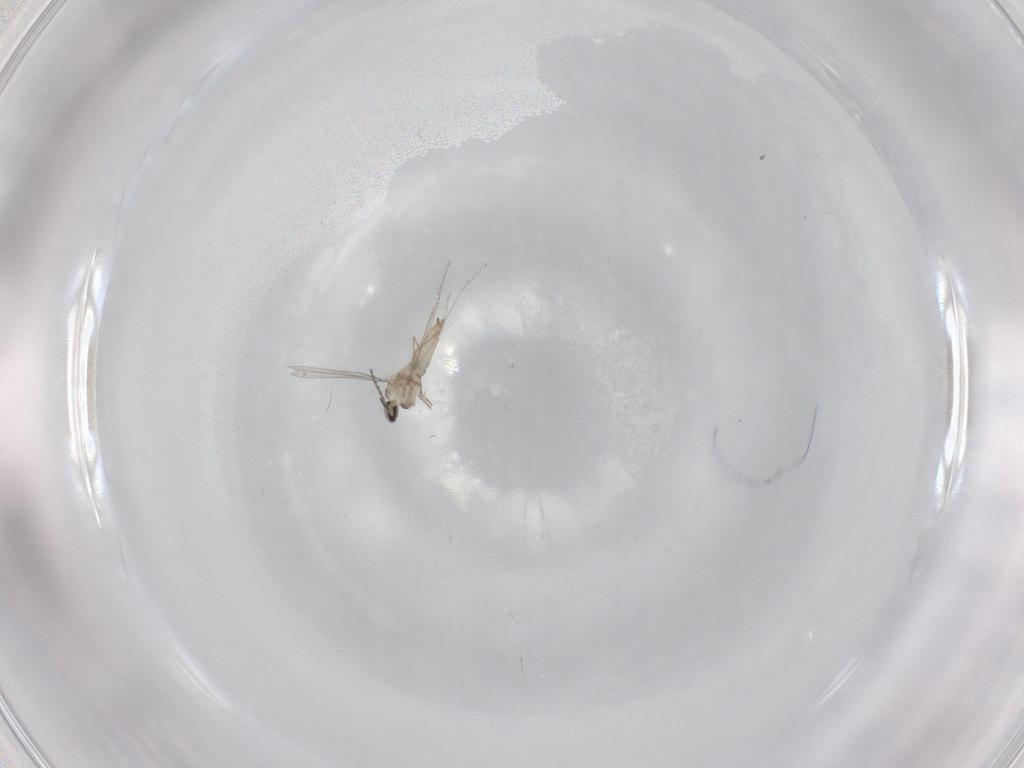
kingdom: Animalia
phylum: Arthropoda
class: Insecta
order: Diptera
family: Cecidomyiidae
